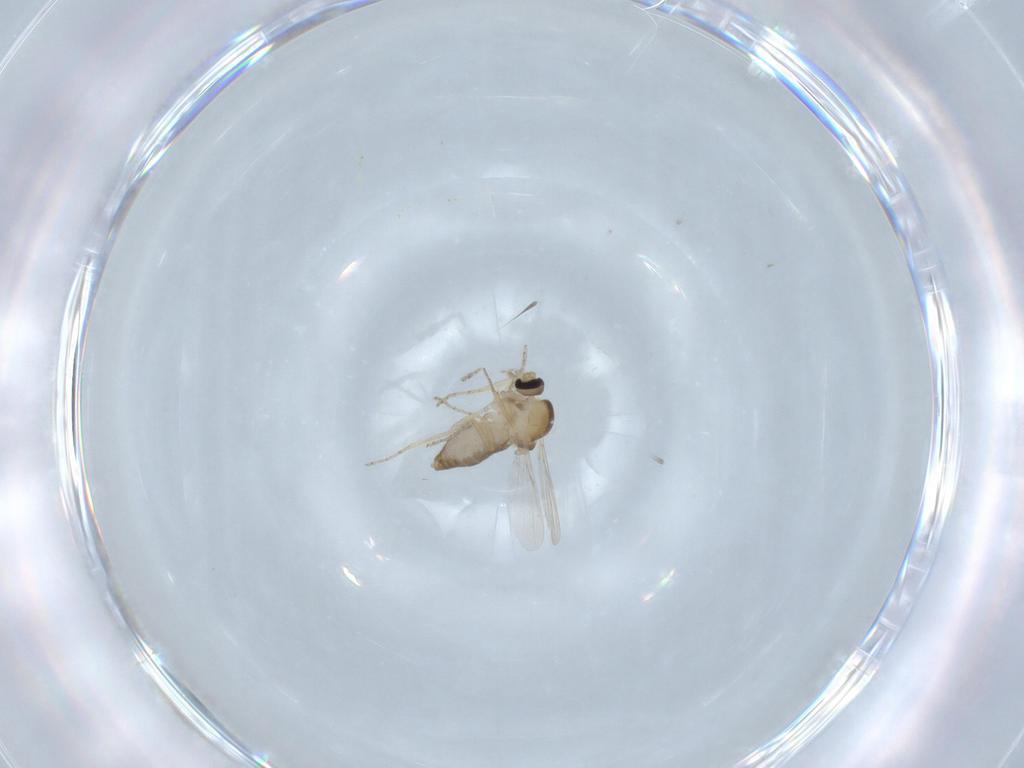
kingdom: Animalia
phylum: Arthropoda
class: Insecta
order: Diptera
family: Ceratopogonidae
